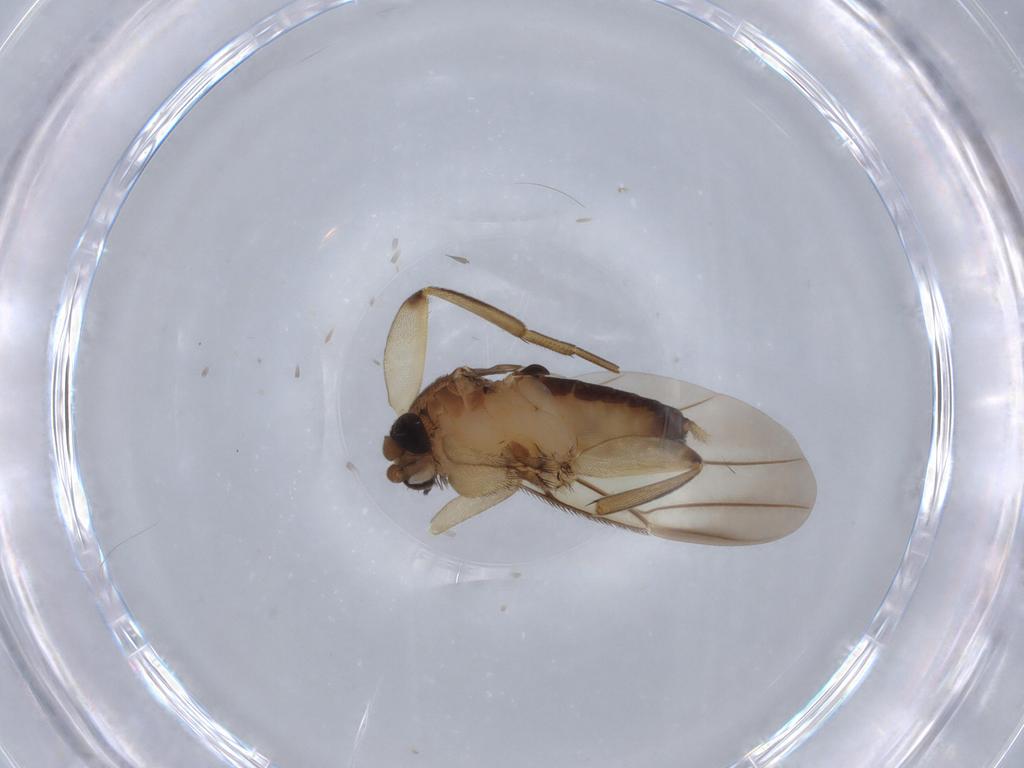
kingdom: Animalia
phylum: Arthropoda
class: Insecta
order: Diptera
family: Phoridae
